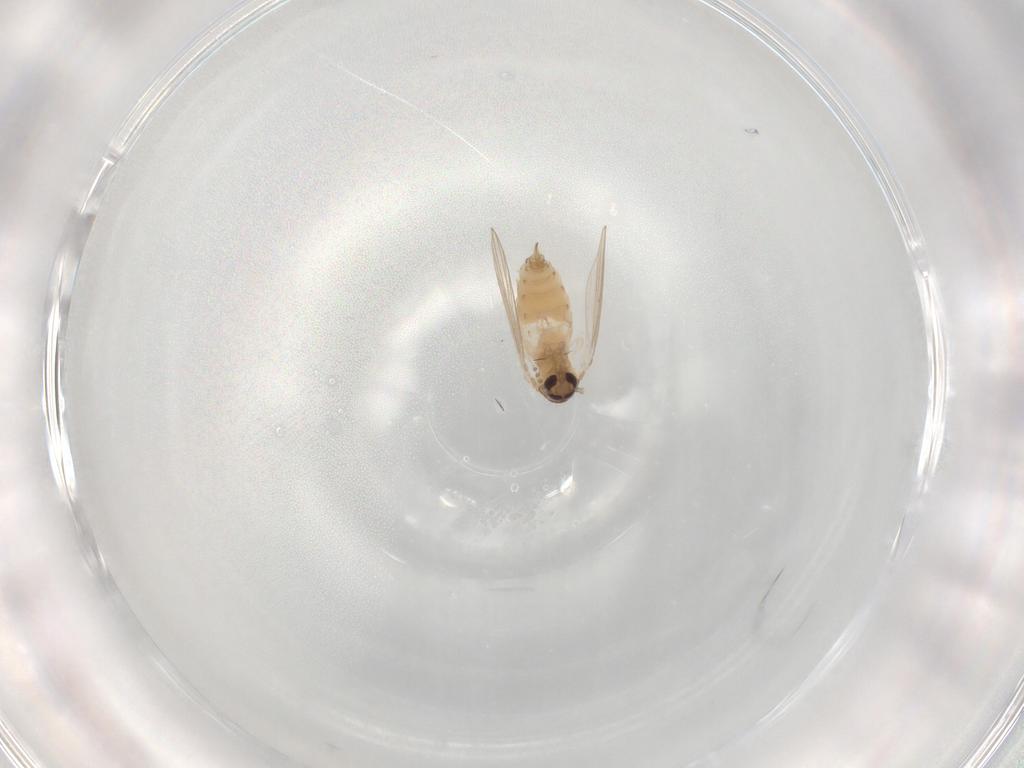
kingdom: Animalia
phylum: Arthropoda
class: Insecta
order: Diptera
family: Psychodidae
